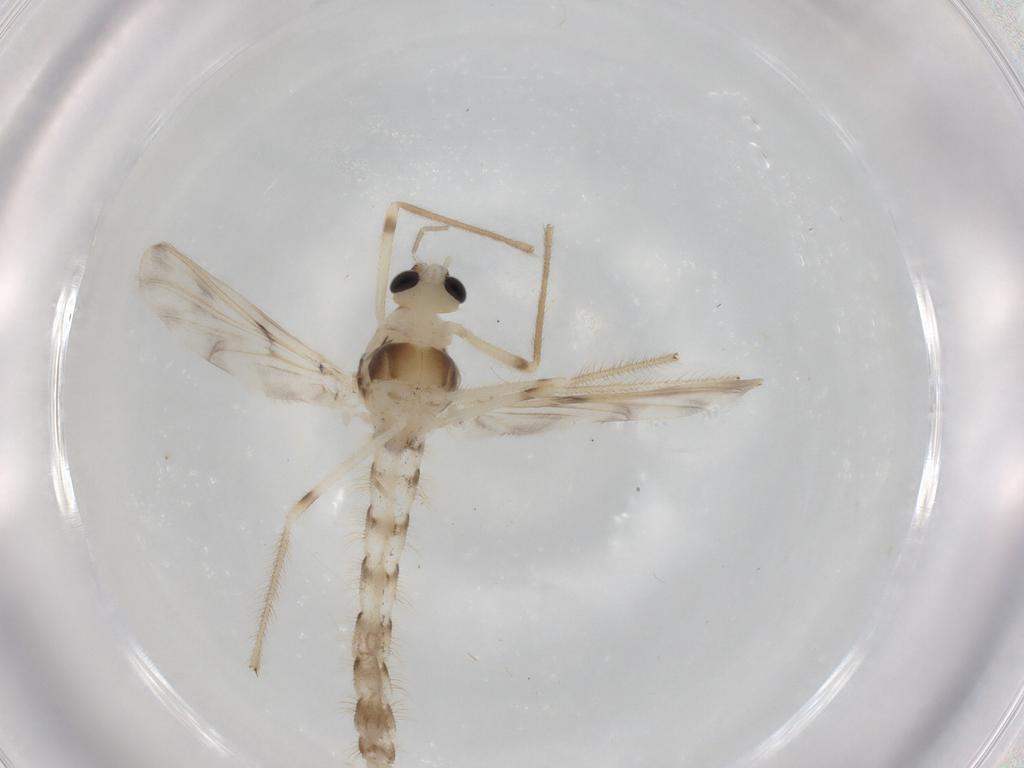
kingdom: Animalia
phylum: Arthropoda
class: Insecta
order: Diptera
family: Chironomidae
